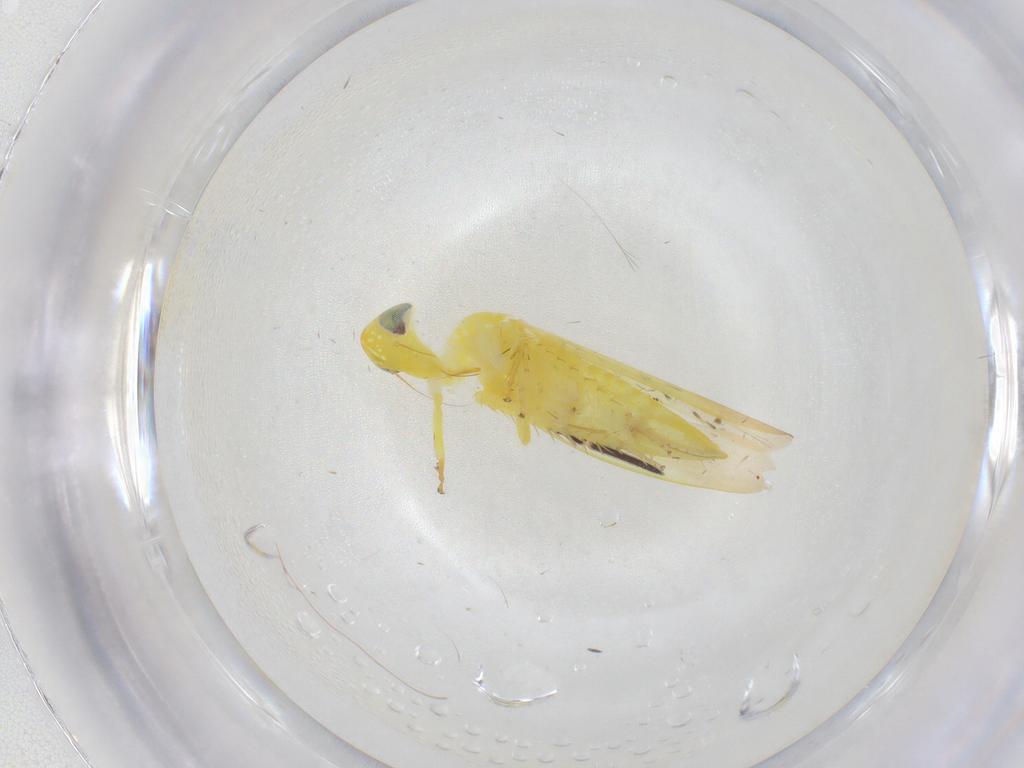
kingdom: Animalia
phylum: Arthropoda
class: Insecta
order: Hemiptera
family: Cicadellidae
